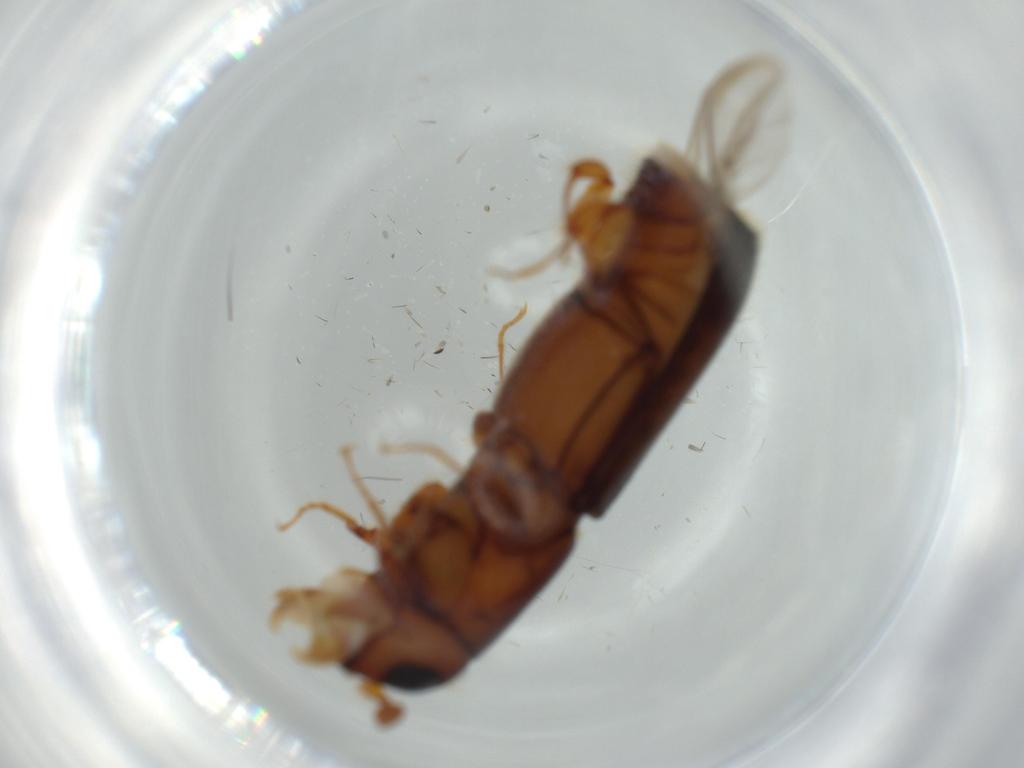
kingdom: Animalia
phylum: Arthropoda
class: Insecta
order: Coleoptera
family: Curculionidae
